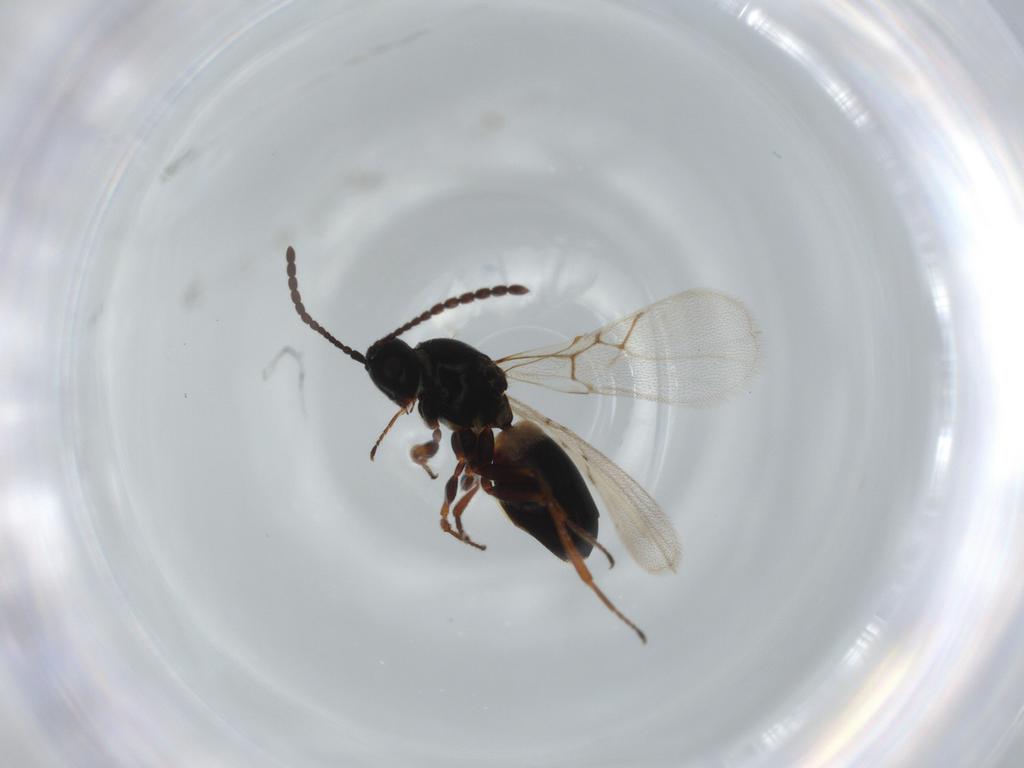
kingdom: Animalia
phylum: Arthropoda
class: Insecta
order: Hymenoptera
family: Figitidae
